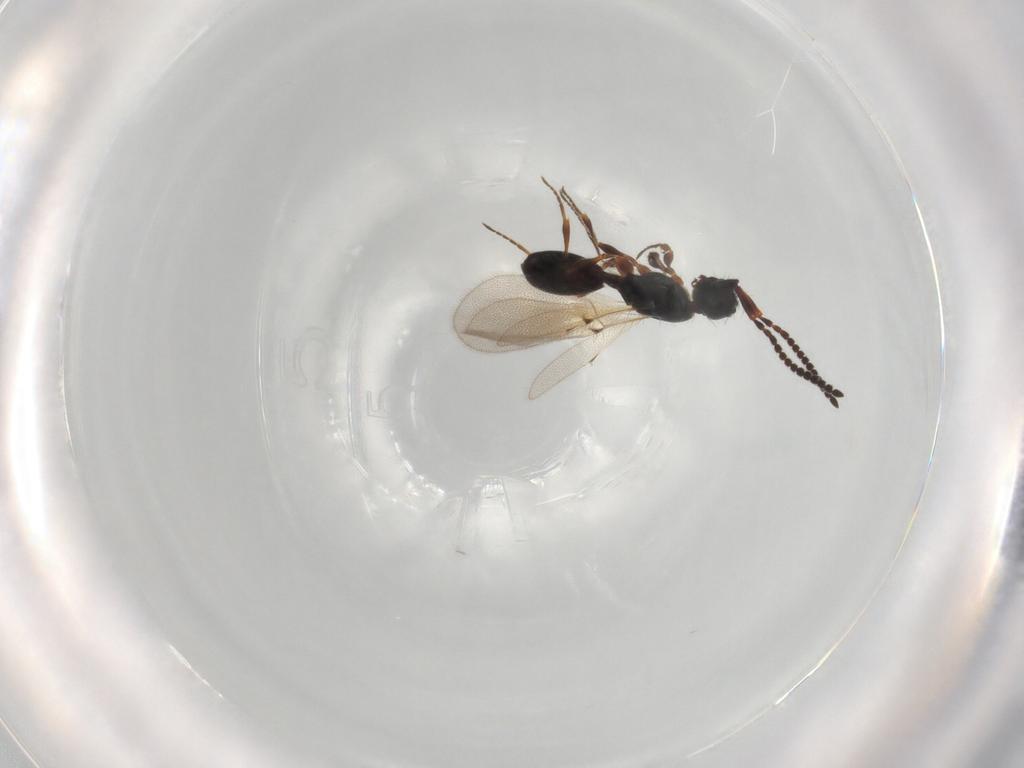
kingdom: Animalia
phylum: Arthropoda
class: Insecta
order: Hymenoptera
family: Diapriidae
